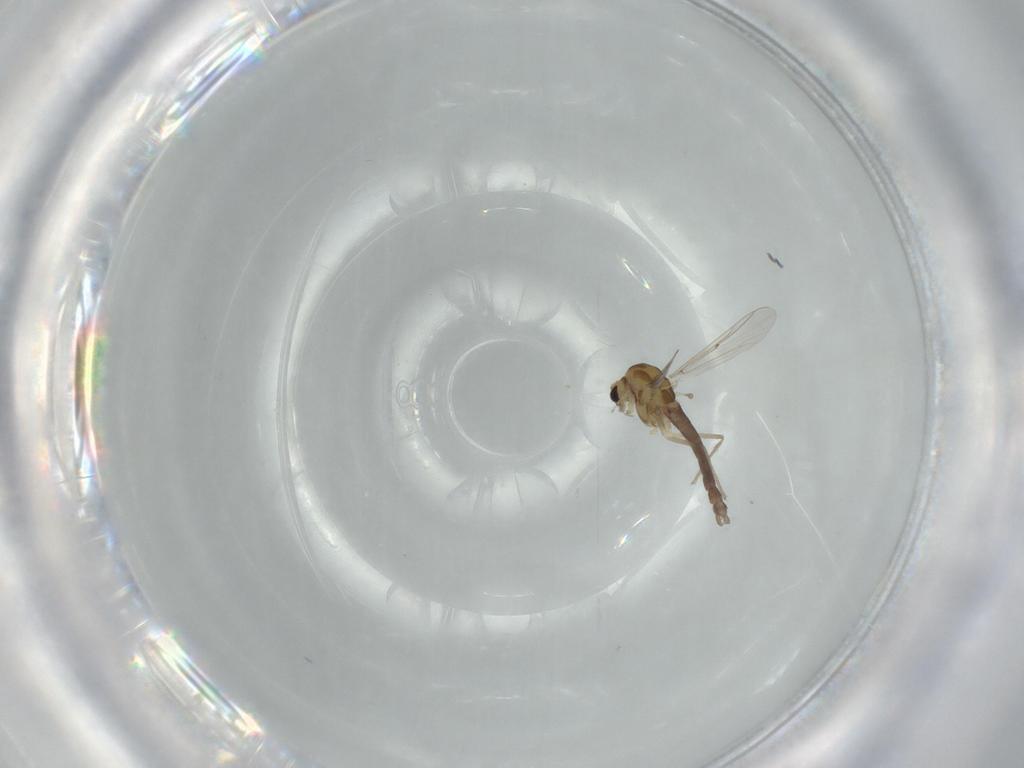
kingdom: Animalia
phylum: Arthropoda
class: Insecta
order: Diptera
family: Chironomidae
